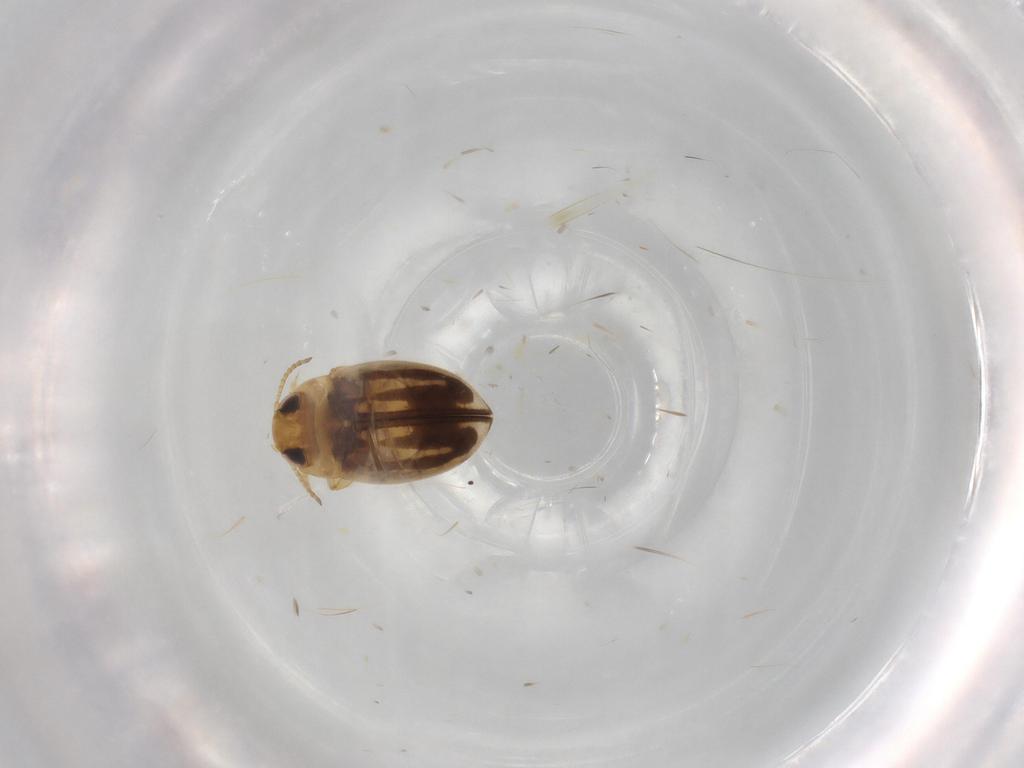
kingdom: Animalia
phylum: Arthropoda
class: Insecta
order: Coleoptera
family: Dytiscidae
